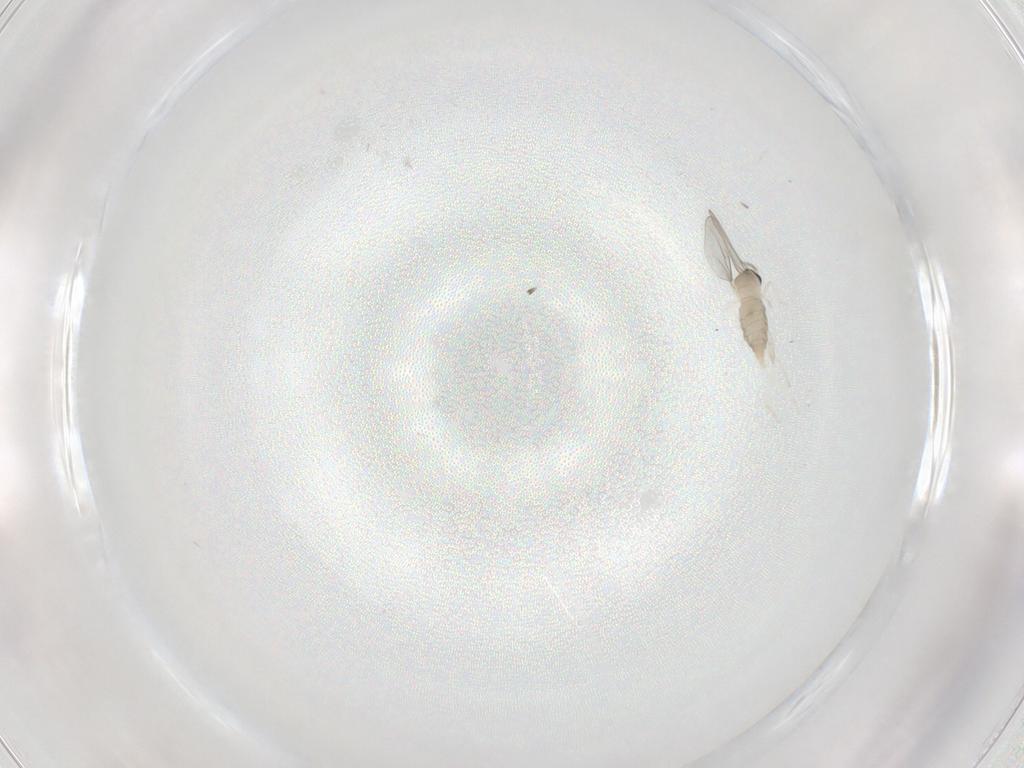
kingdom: Animalia
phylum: Arthropoda
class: Insecta
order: Diptera
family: Cecidomyiidae
